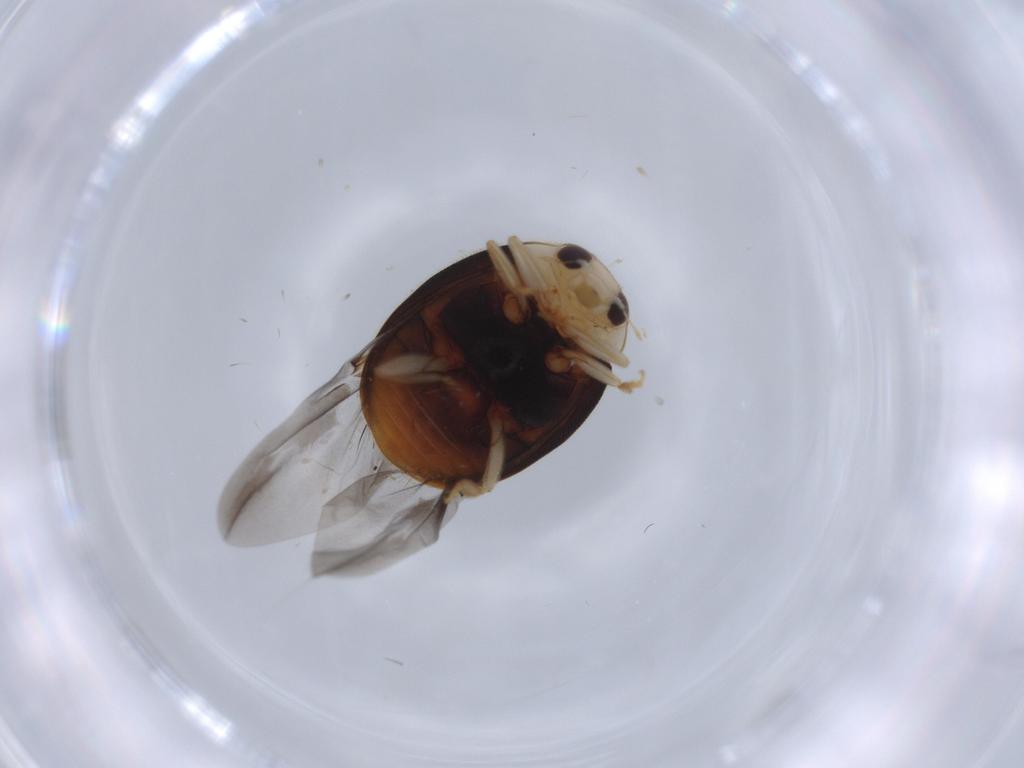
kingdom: Animalia
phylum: Arthropoda
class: Insecta
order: Coleoptera
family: Coccinellidae
